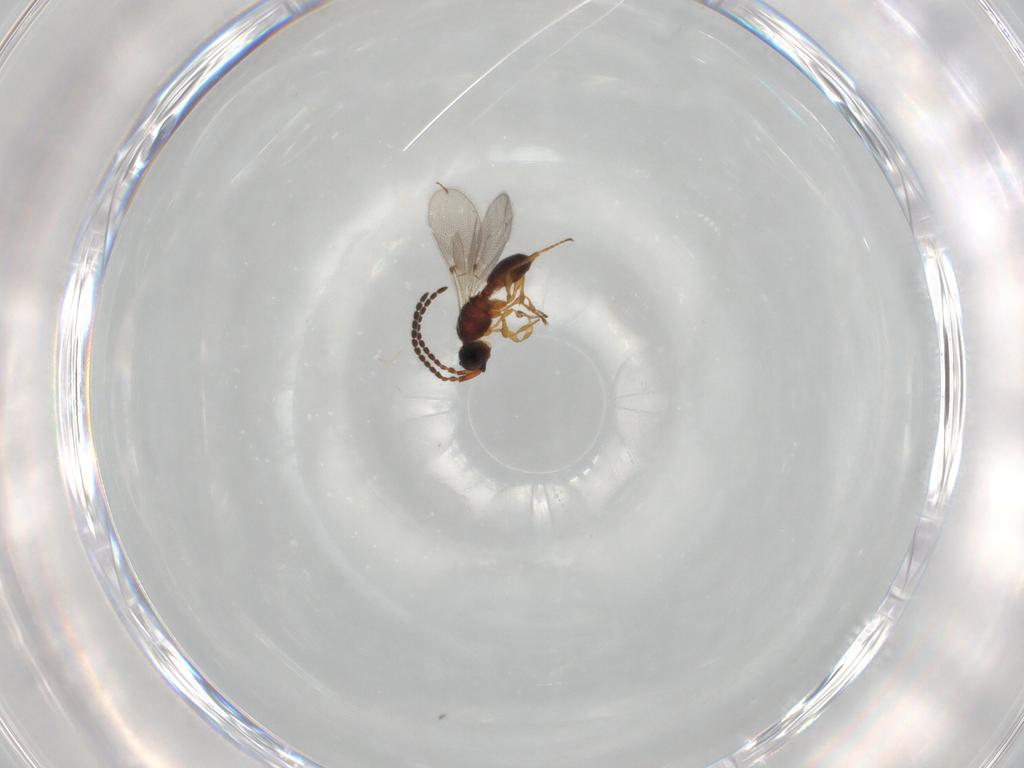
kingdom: Animalia
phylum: Arthropoda
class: Insecta
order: Hymenoptera
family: Diapriidae
